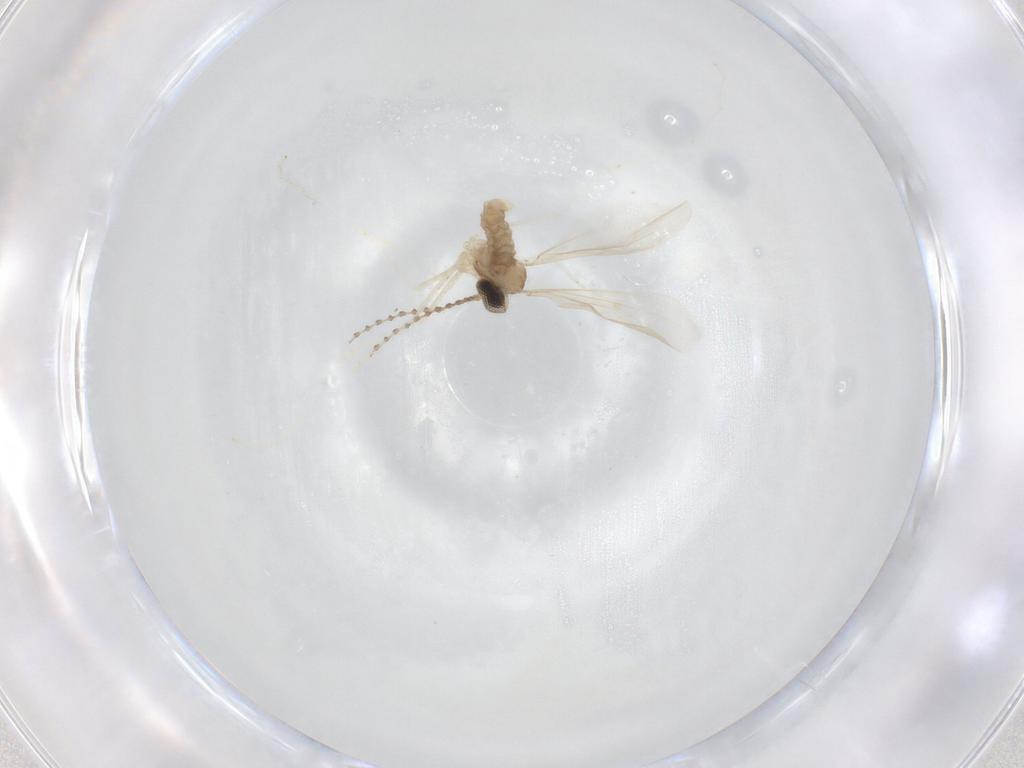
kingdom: Animalia
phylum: Arthropoda
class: Insecta
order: Diptera
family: Cecidomyiidae
